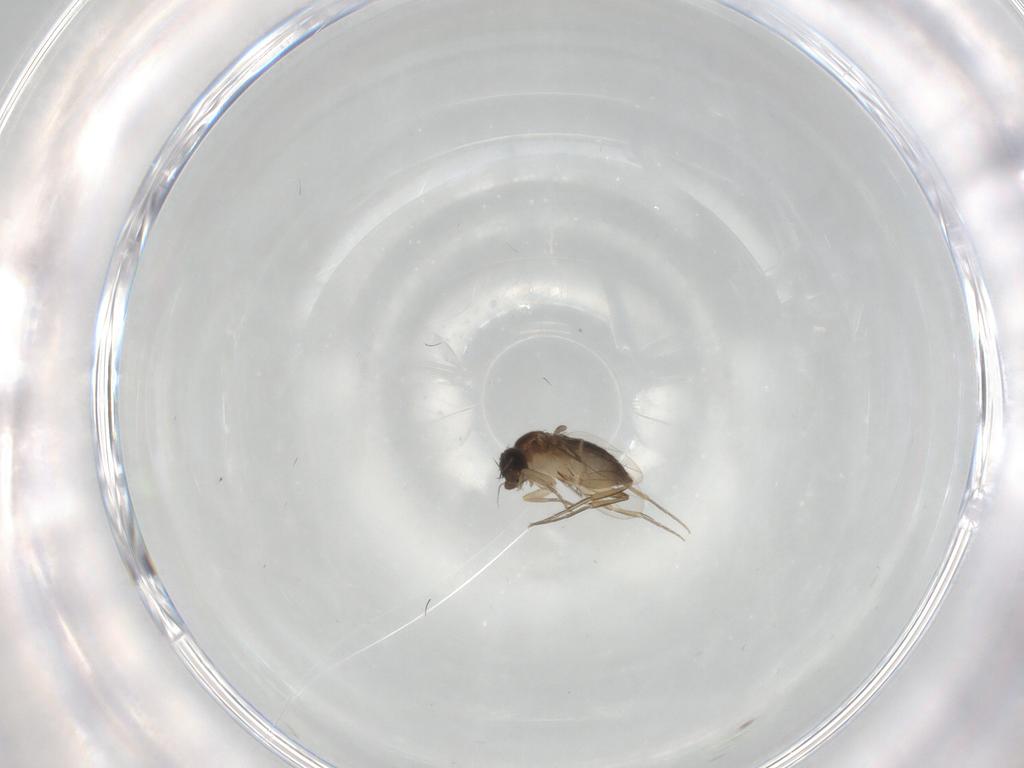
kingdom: Animalia
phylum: Arthropoda
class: Insecta
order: Diptera
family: Phoridae
